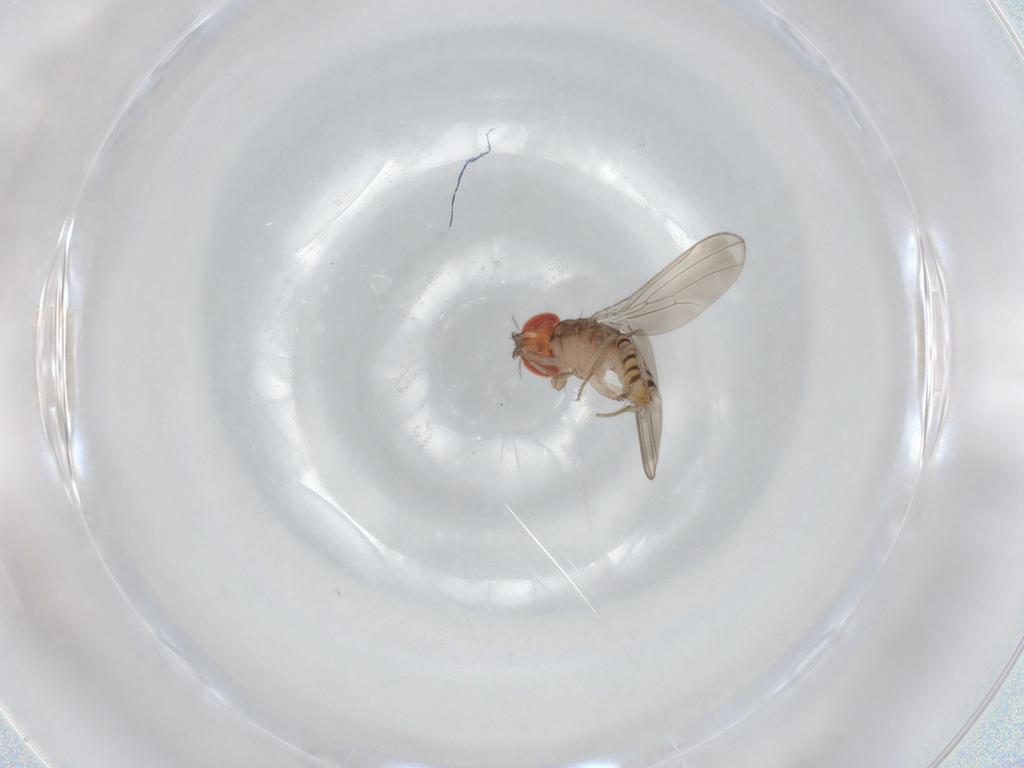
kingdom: Animalia
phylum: Arthropoda
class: Insecta
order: Diptera
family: Drosophilidae
